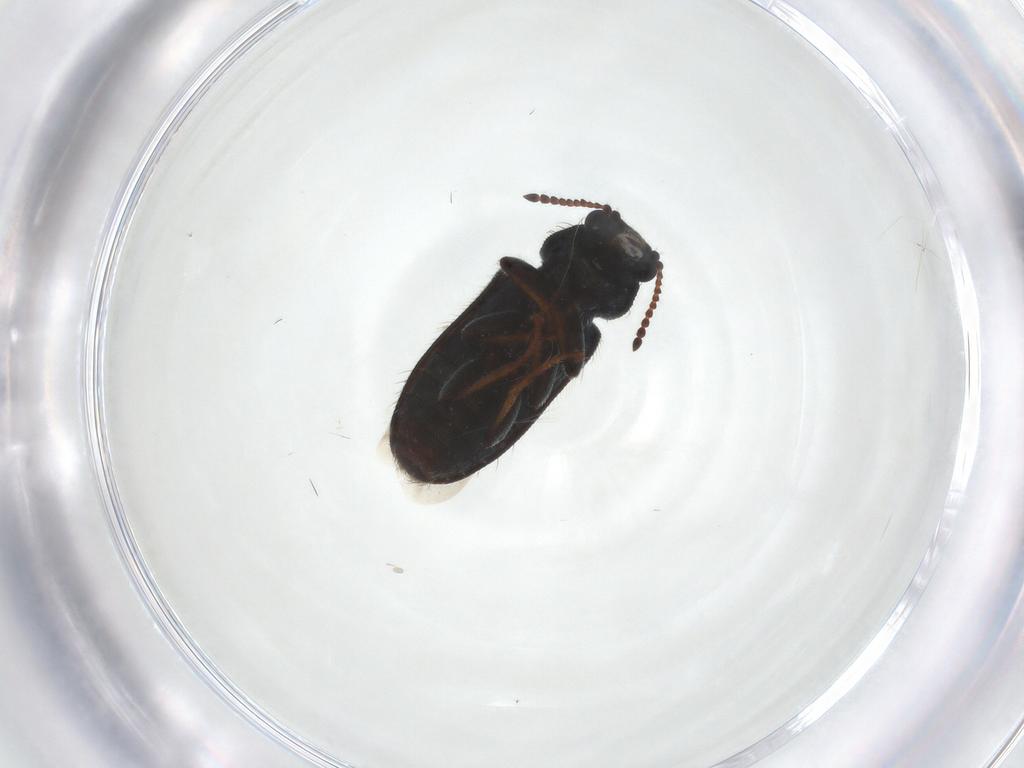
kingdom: Animalia
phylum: Arthropoda
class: Insecta
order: Coleoptera
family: Melyridae
